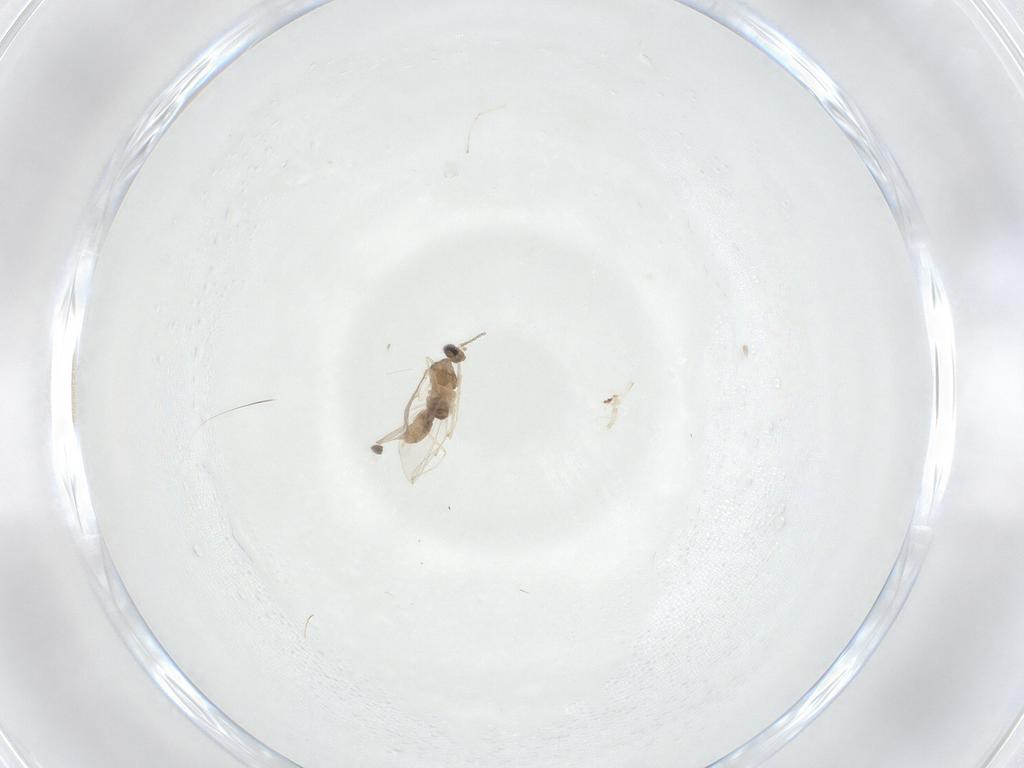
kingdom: Animalia
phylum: Arthropoda
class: Insecta
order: Diptera
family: Cecidomyiidae
